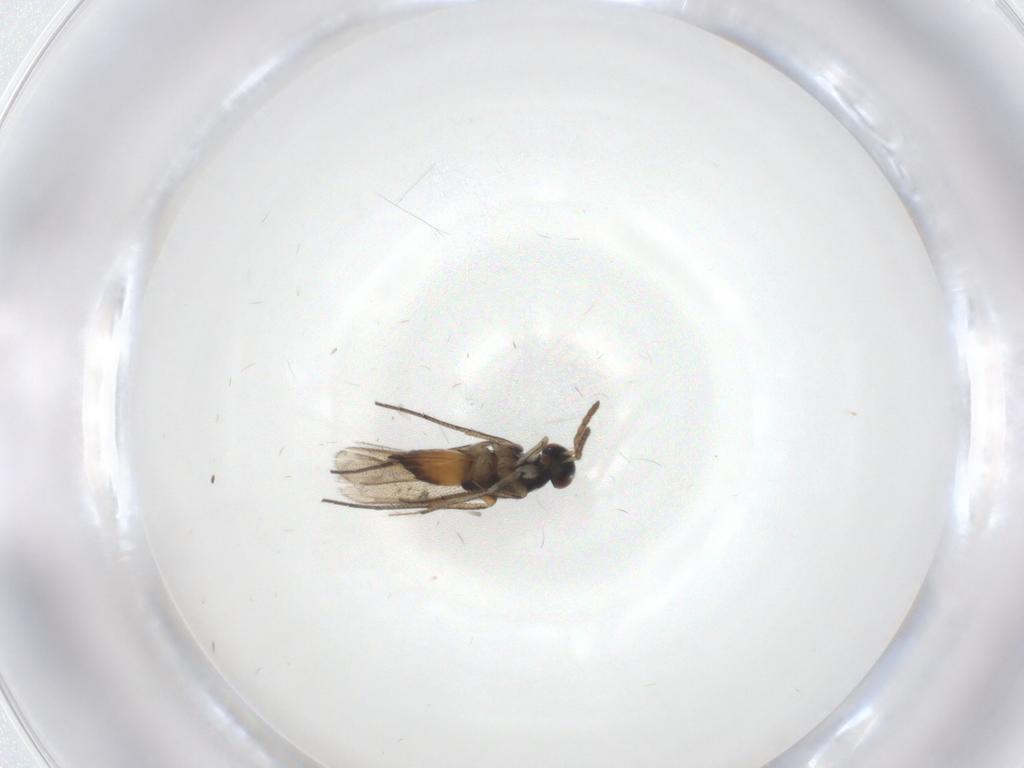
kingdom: Animalia
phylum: Arthropoda
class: Insecta
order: Hymenoptera
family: Eulophidae
